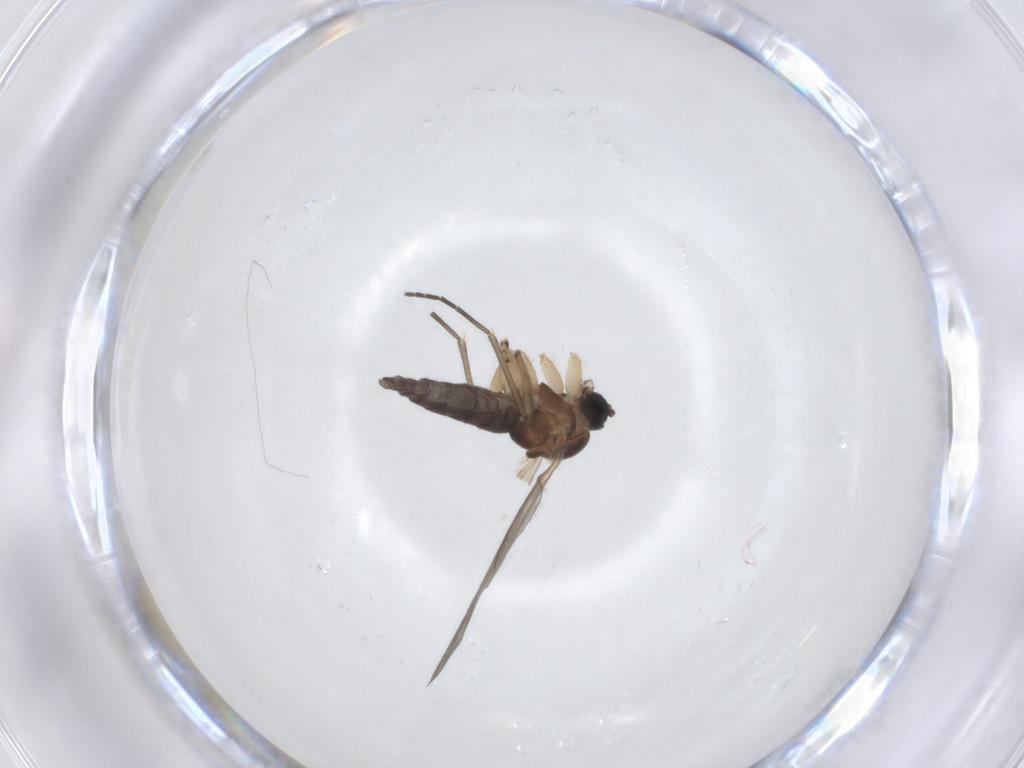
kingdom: Animalia
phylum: Arthropoda
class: Insecta
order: Diptera
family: Sciaridae
